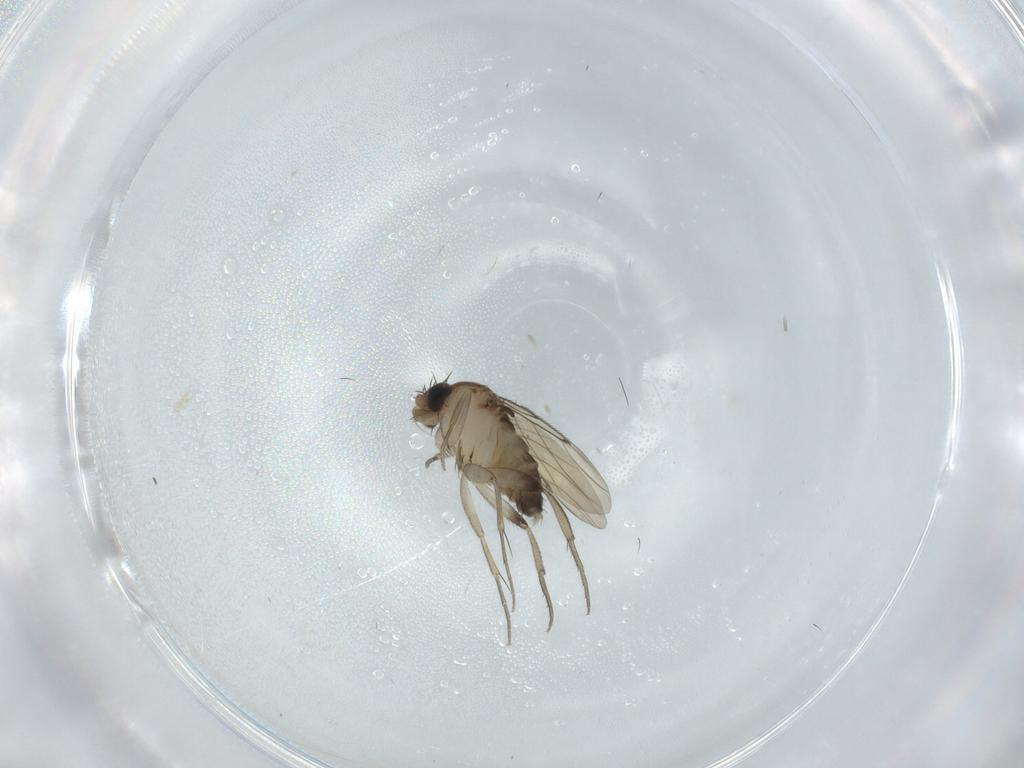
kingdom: Animalia
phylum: Arthropoda
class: Insecta
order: Diptera
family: Phoridae
